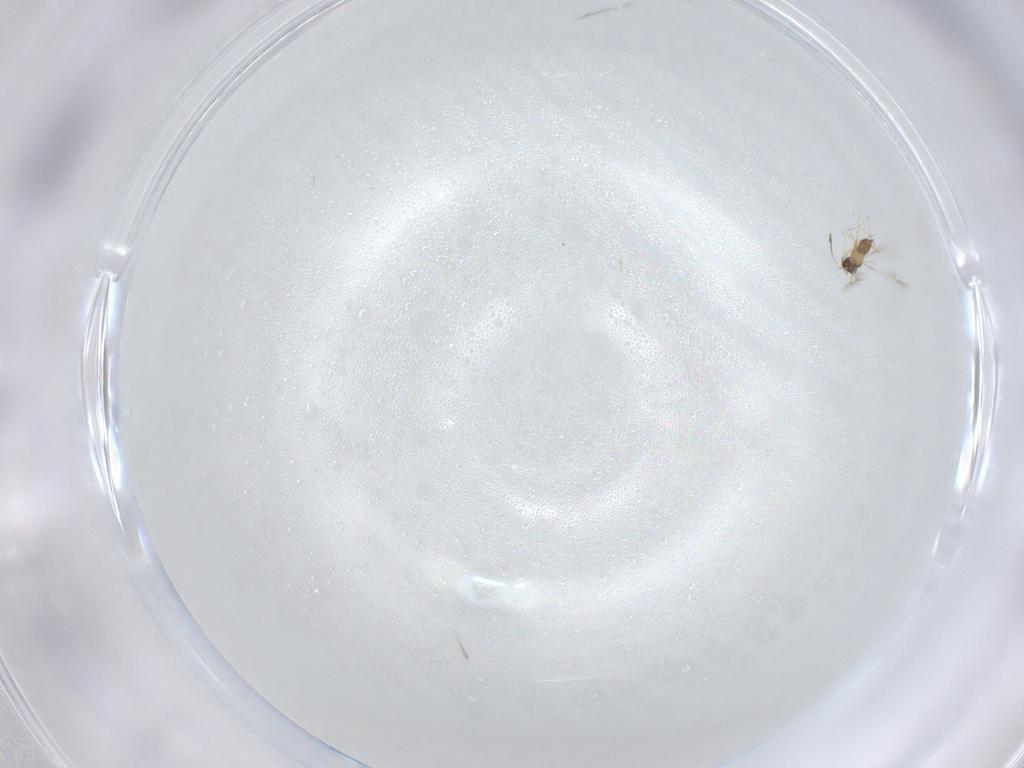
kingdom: Animalia
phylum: Arthropoda
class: Insecta
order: Hymenoptera
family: Mymaridae
